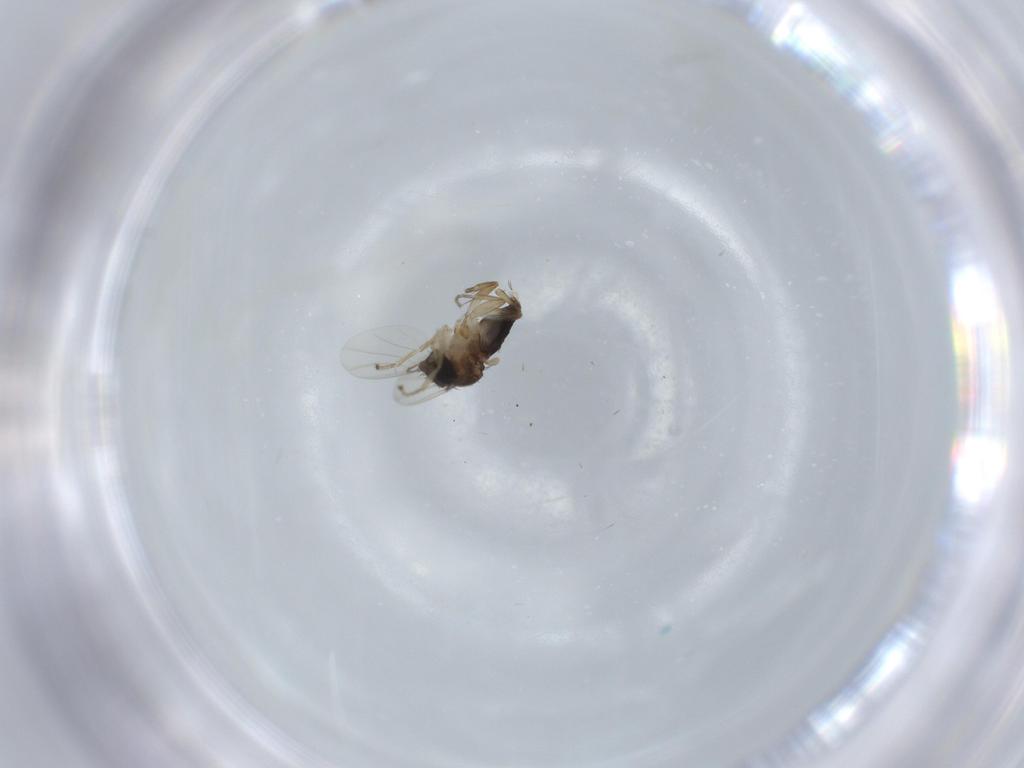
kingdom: Animalia
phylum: Arthropoda
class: Insecta
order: Diptera
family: Phoridae
